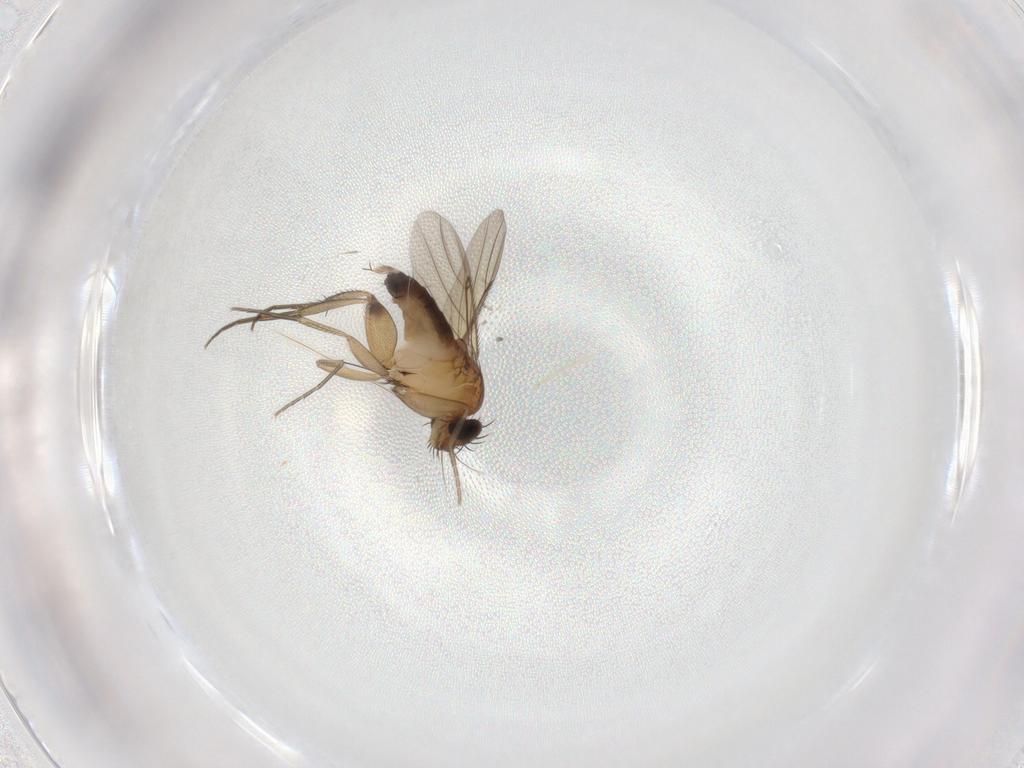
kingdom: Animalia
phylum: Arthropoda
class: Insecta
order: Diptera
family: Phoridae
